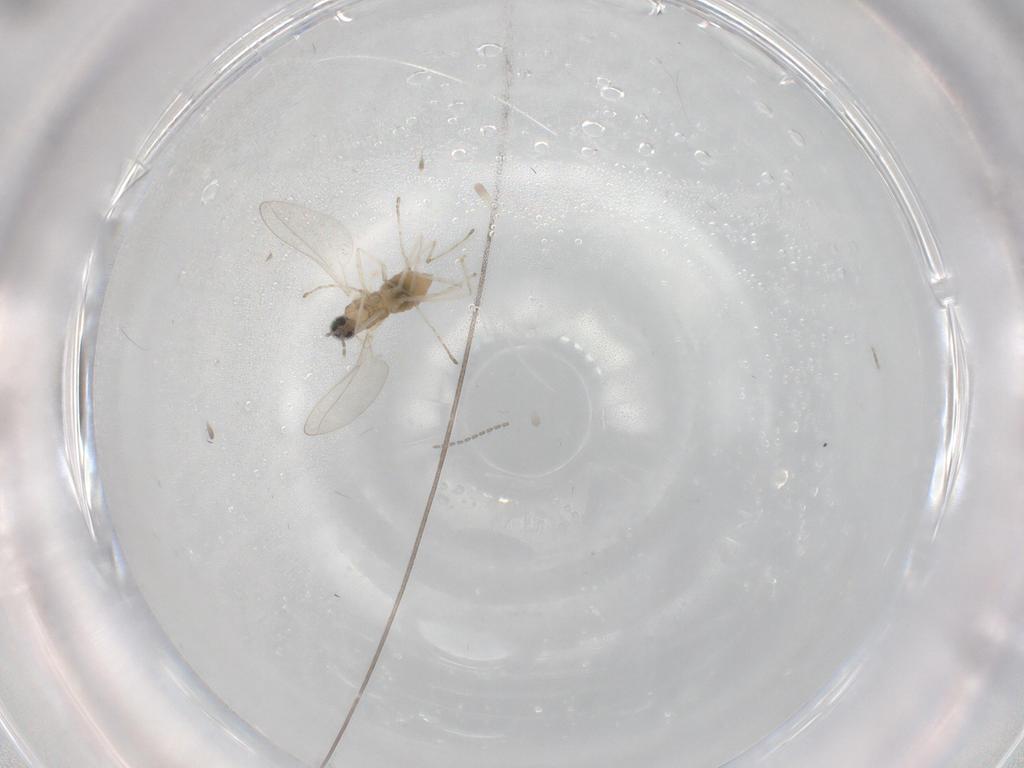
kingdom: Animalia
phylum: Arthropoda
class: Insecta
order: Diptera
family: Cecidomyiidae
